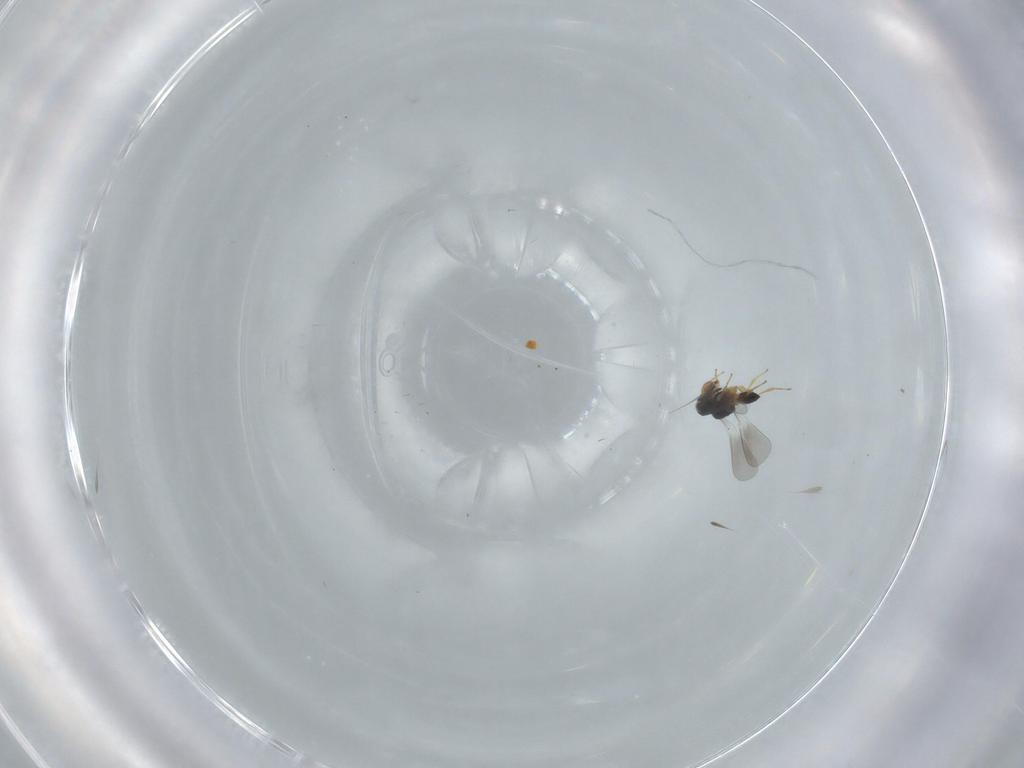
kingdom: Animalia
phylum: Arthropoda
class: Insecta
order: Hymenoptera
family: Platygastridae
